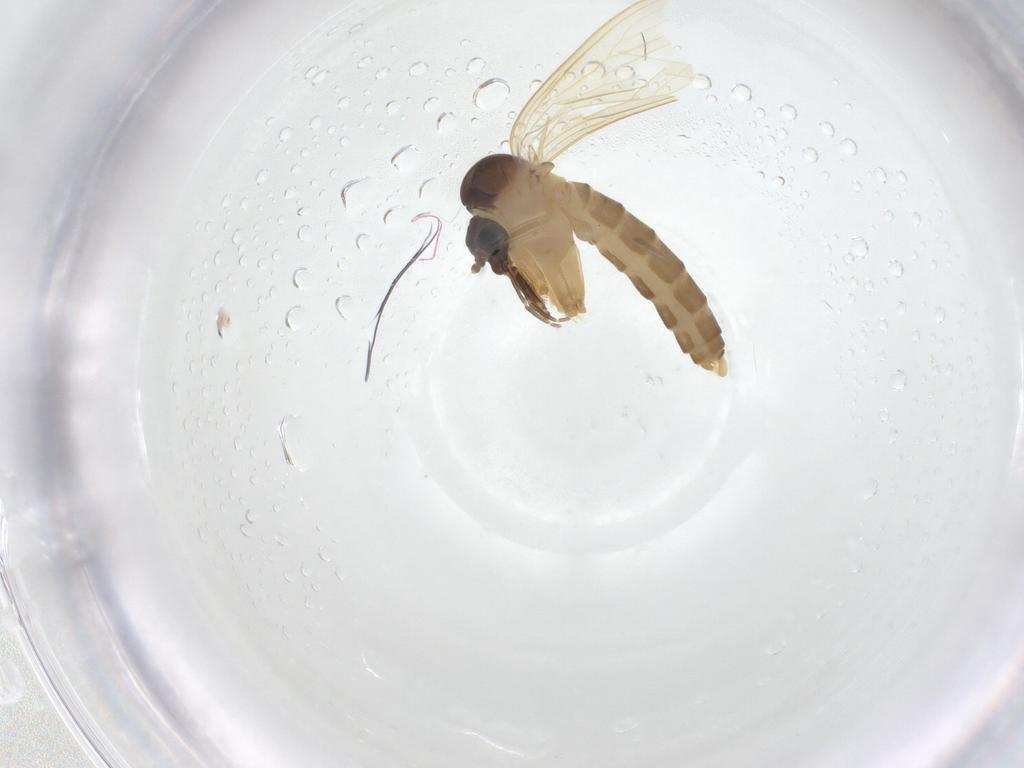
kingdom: Animalia
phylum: Arthropoda
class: Insecta
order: Diptera
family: Psychodidae
